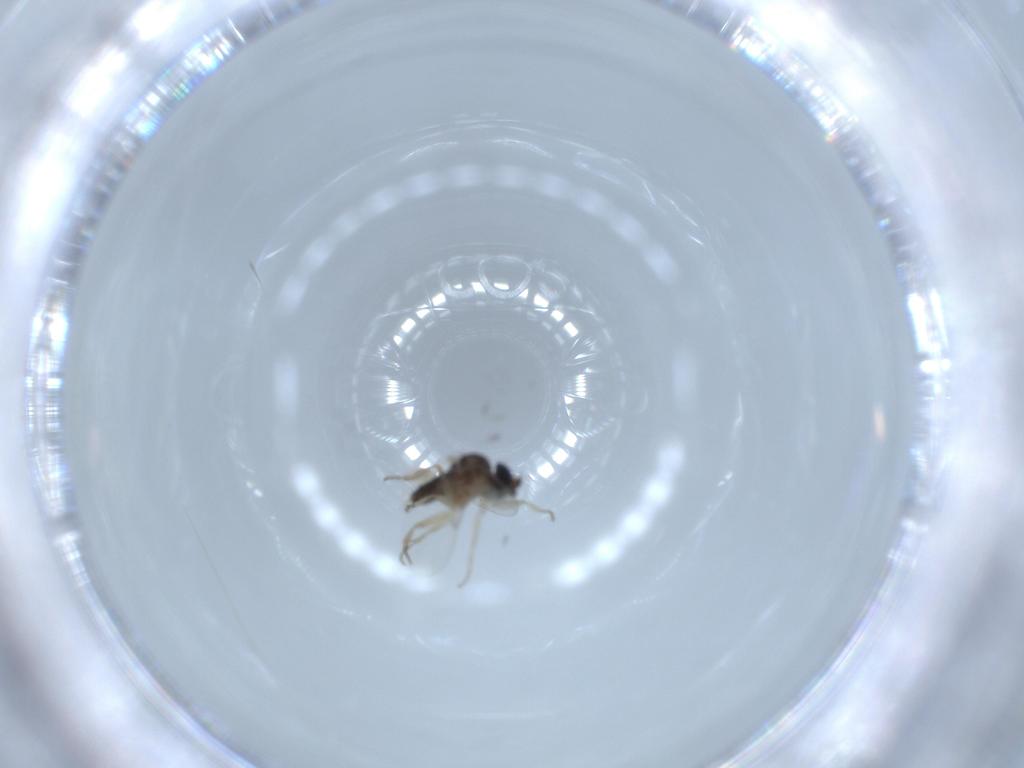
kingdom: Animalia
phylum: Arthropoda
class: Insecta
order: Diptera
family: Phoridae
